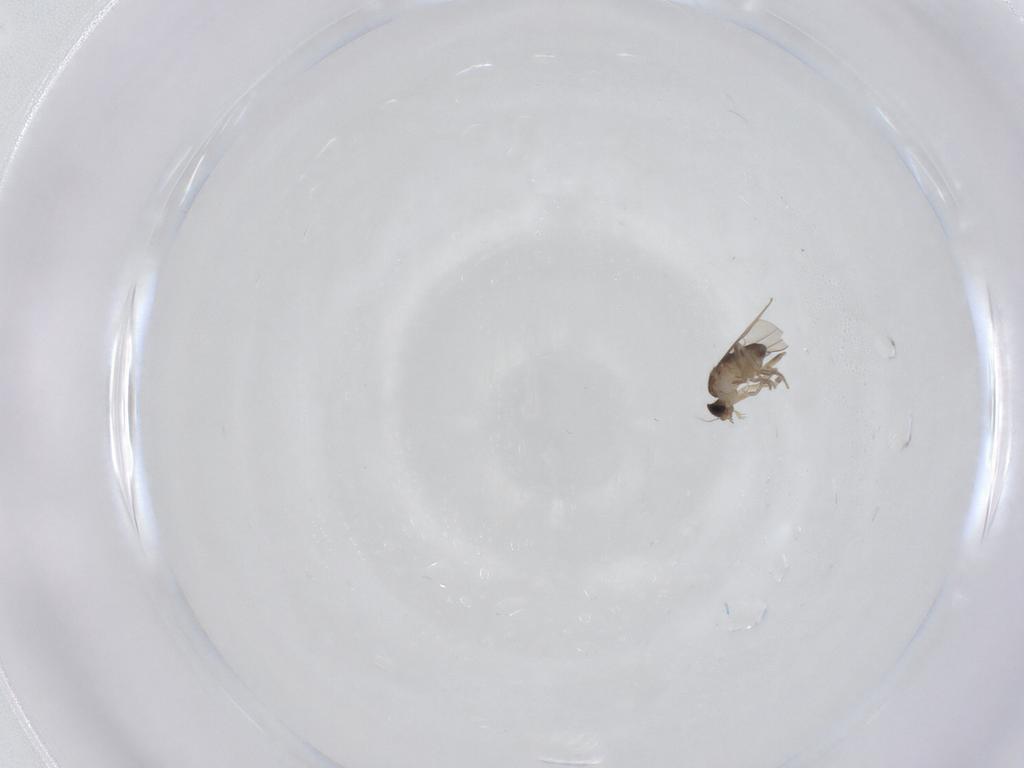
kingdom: Animalia
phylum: Arthropoda
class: Insecta
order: Diptera
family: Phoridae
